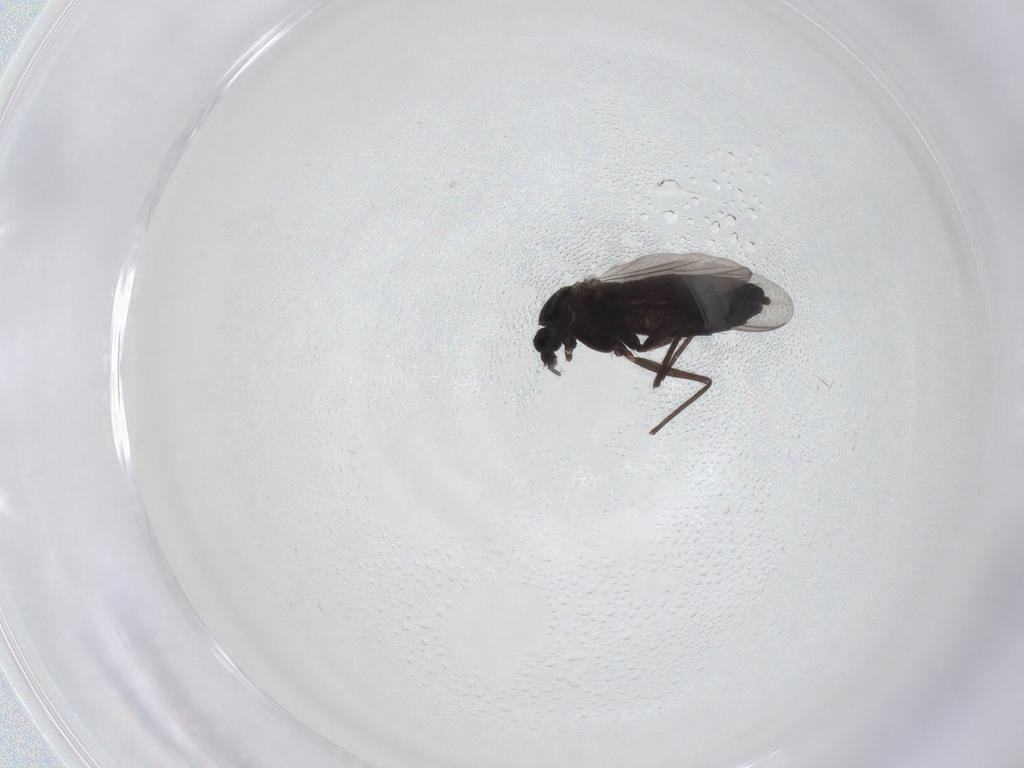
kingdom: Animalia
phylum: Arthropoda
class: Insecta
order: Diptera
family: Chironomidae
